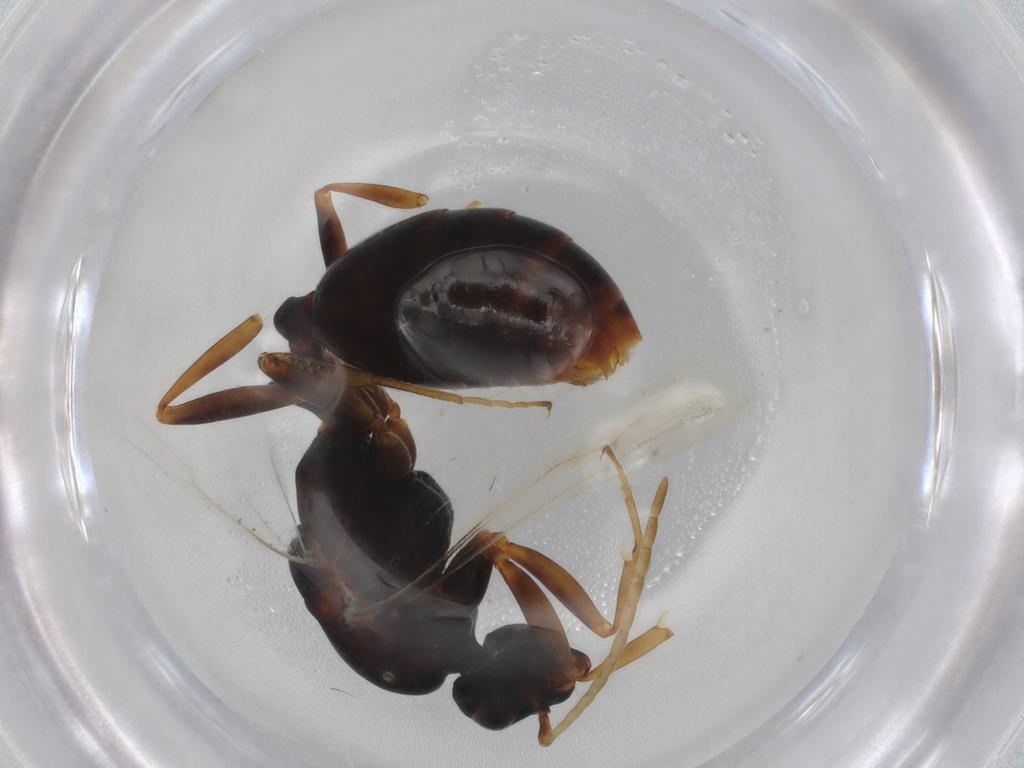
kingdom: Animalia
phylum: Arthropoda
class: Insecta
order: Hymenoptera
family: Formicidae
